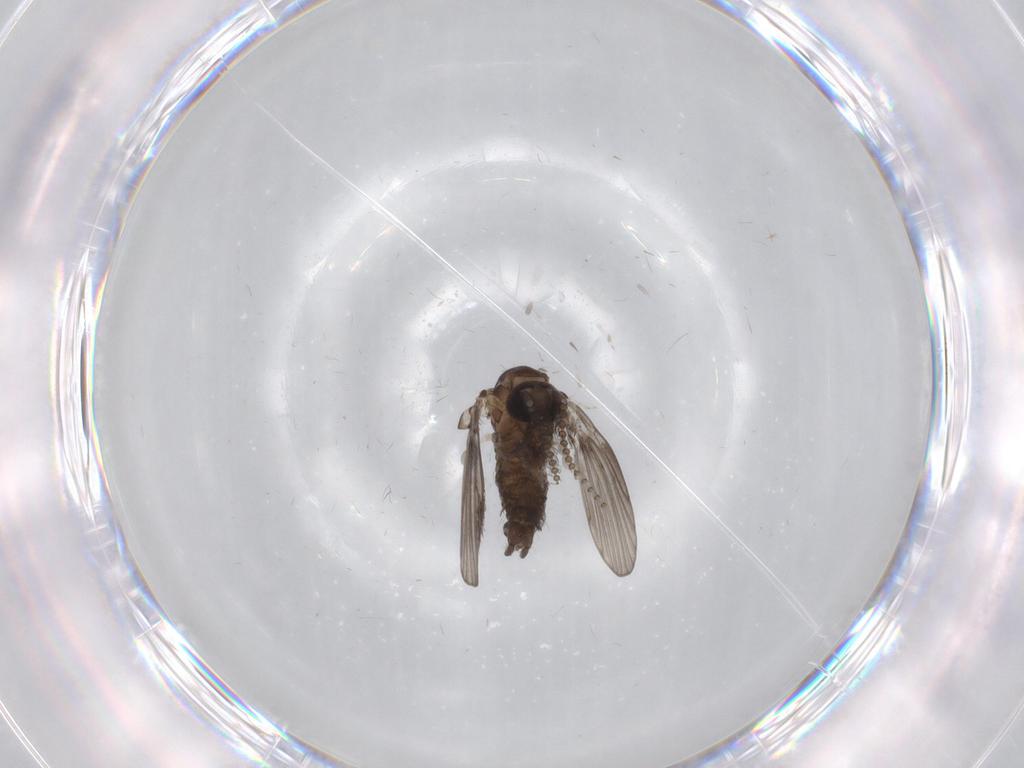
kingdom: Animalia
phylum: Arthropoda
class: Insecta
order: Diptera
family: Psychodidae
